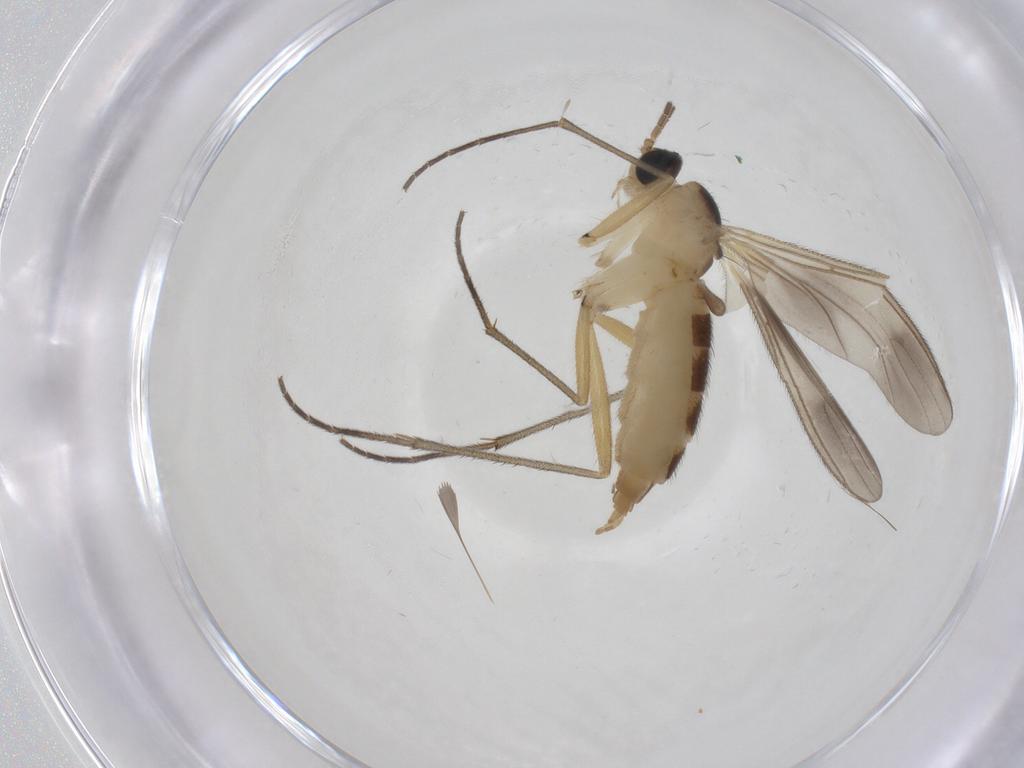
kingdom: Animalia
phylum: Arthropoda
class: Insecta
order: Diptera
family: Sciaridae
